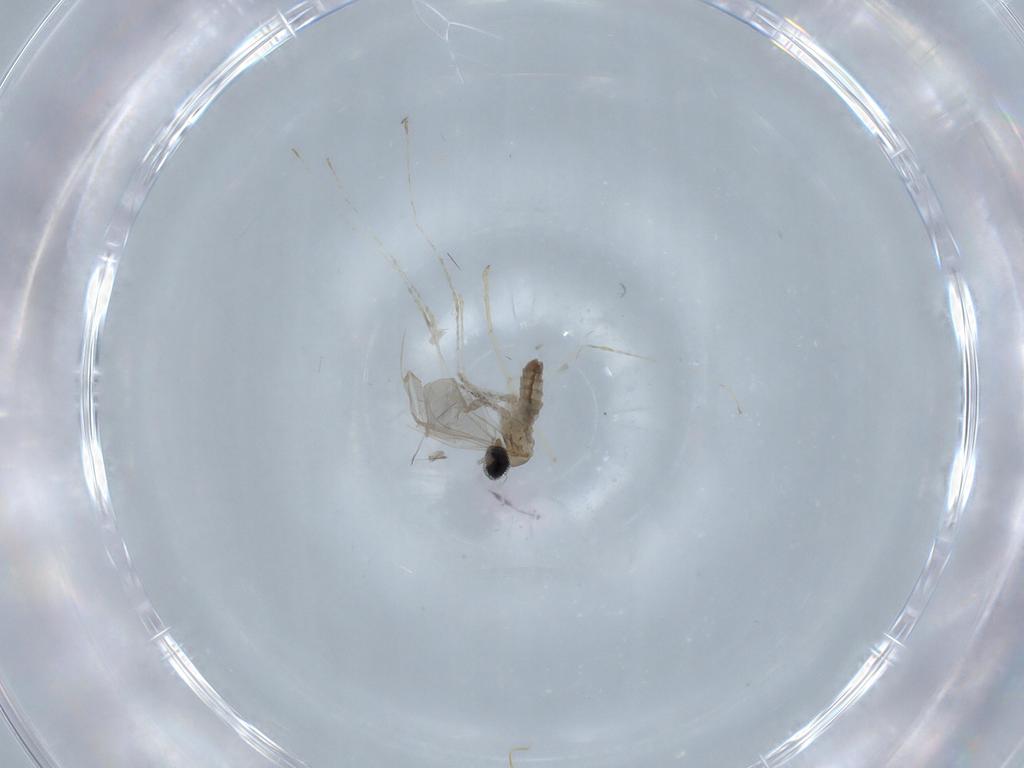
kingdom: Animalia
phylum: Arthropoda
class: Insecta
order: Diptera
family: Cecidomyiidae
